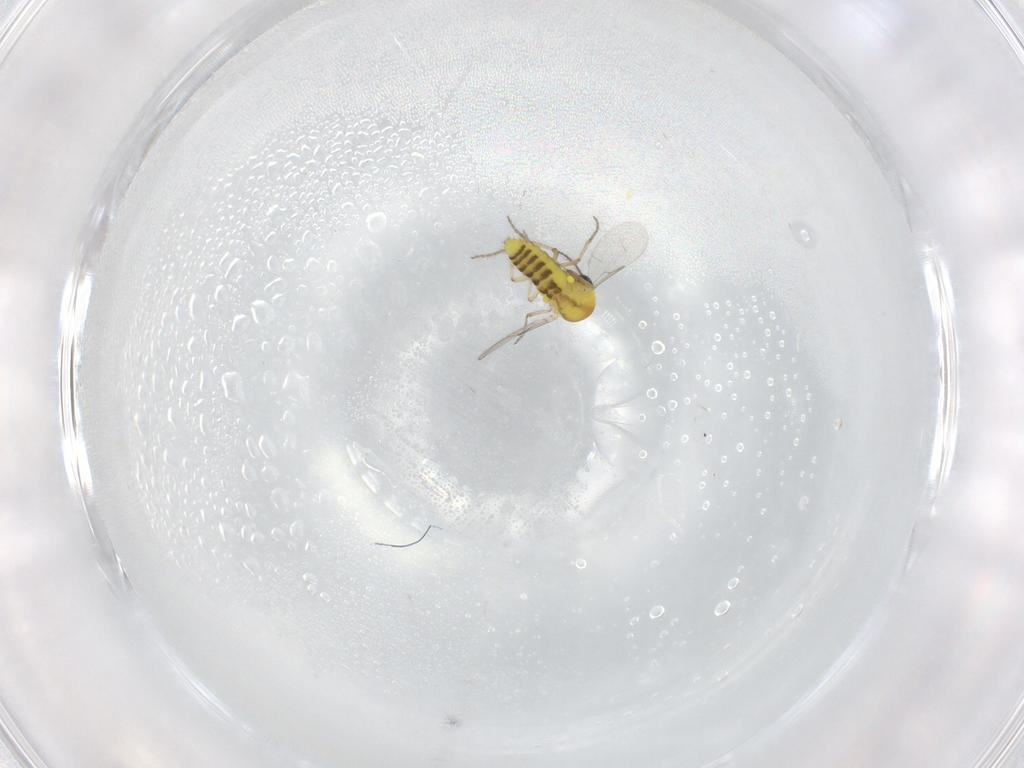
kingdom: Animalia
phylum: Arthropoda
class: Insecta
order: Diptera
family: Ceratopogonidae
